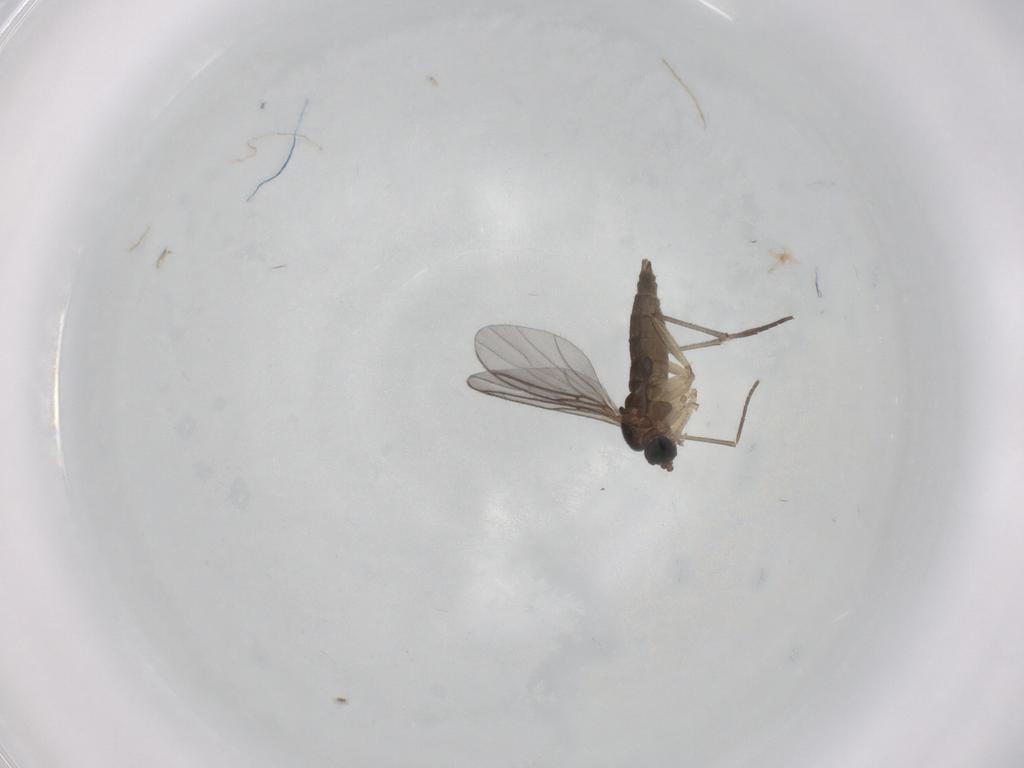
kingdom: Animalia
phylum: Arthropoda
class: Insecta
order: Diptera
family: Sciaridae
